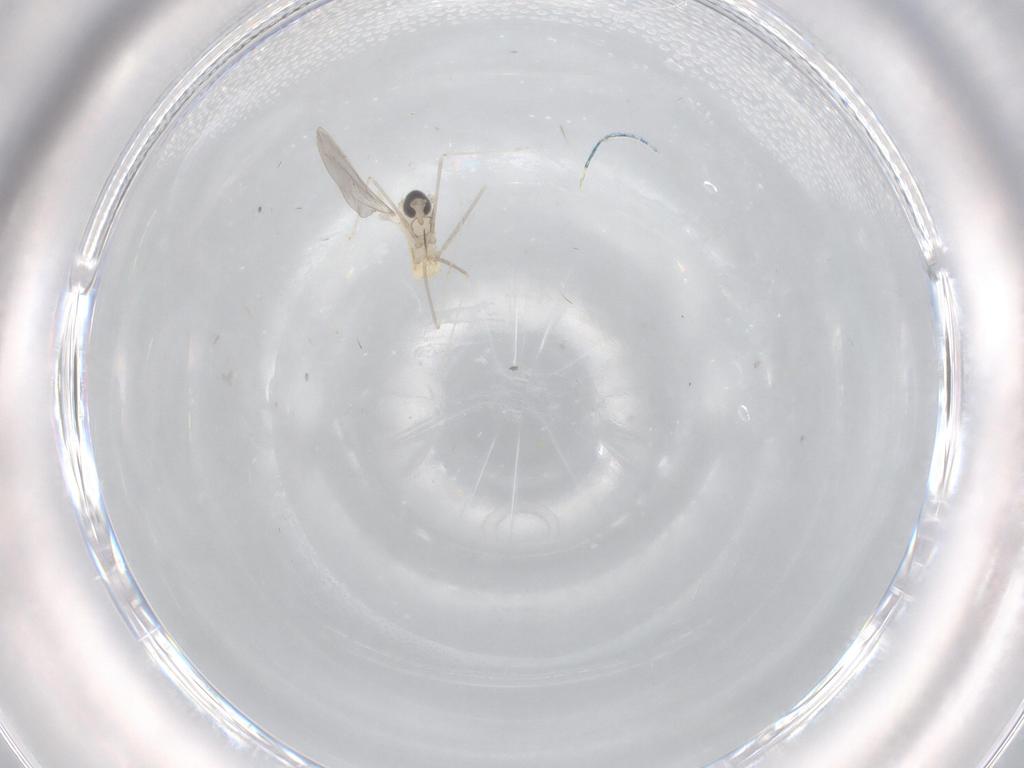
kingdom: Animalia
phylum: Arthropoda
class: Insecta
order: Diptera
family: Cecidomyiidae
